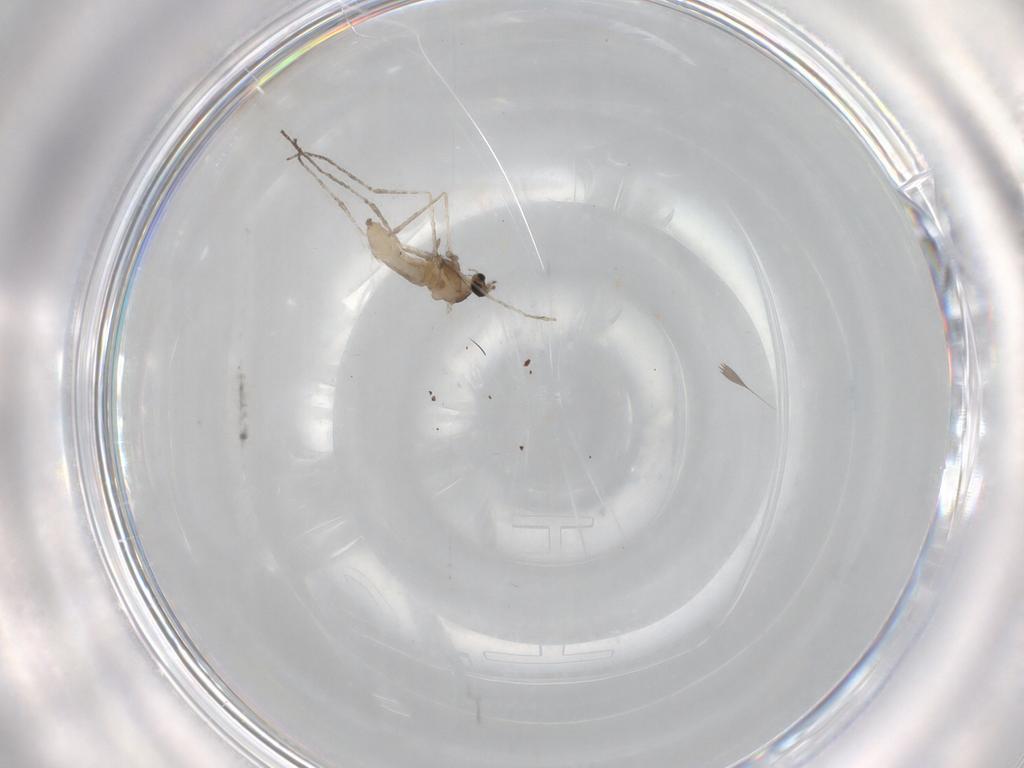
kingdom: Animalia
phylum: Arthropoda
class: Insecta
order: Diptera
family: Cecidomyiidae
